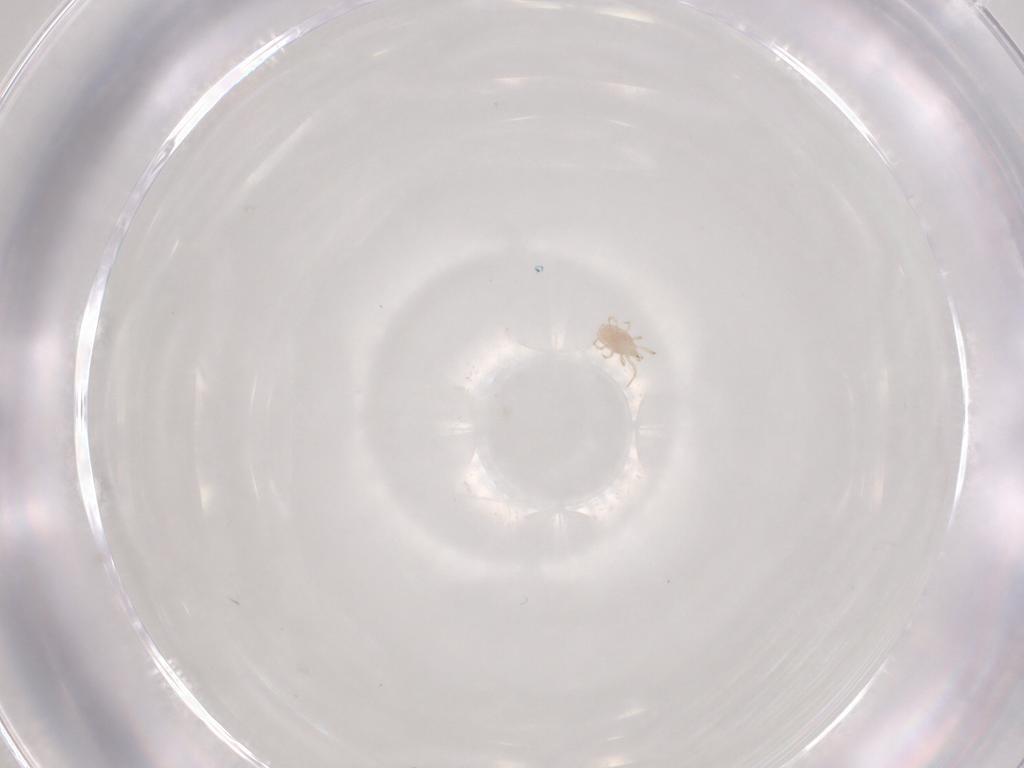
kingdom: Animalia
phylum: Arthropoda
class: Arachnida
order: Mesostigmata
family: Phytoseiidae
